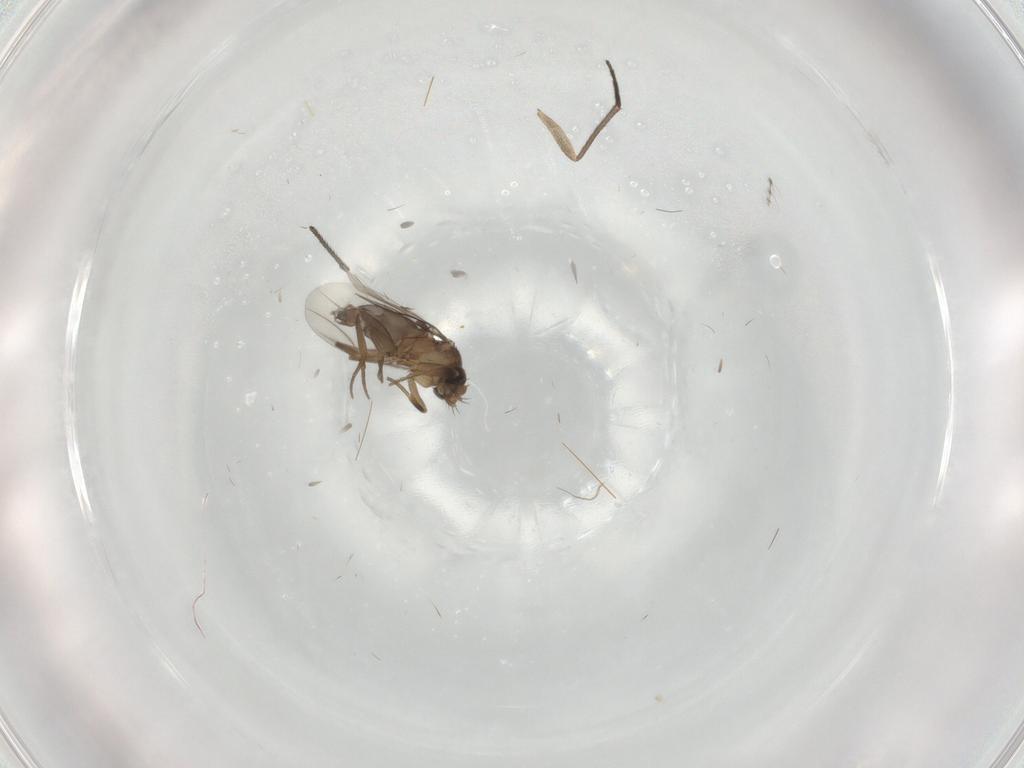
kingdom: Animalia
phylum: Arthropoda
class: Insecta
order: Diptera
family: Phoridae
